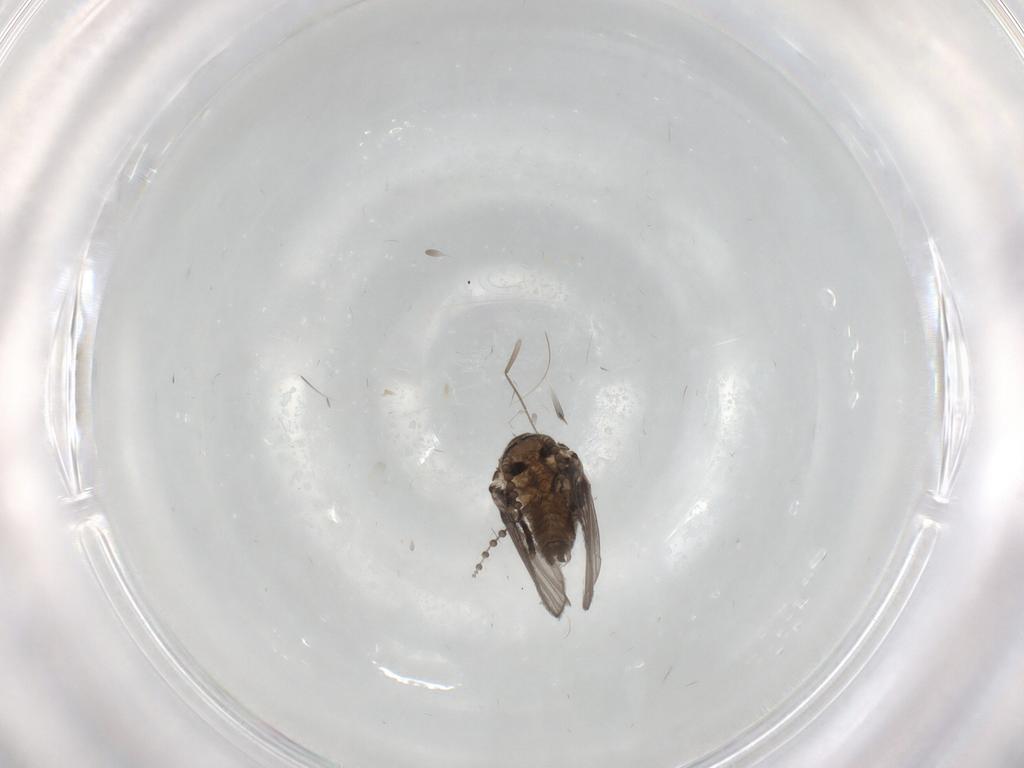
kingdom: Animalia
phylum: Arthropoda
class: Insecta
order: Diptera
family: Psychodidae
